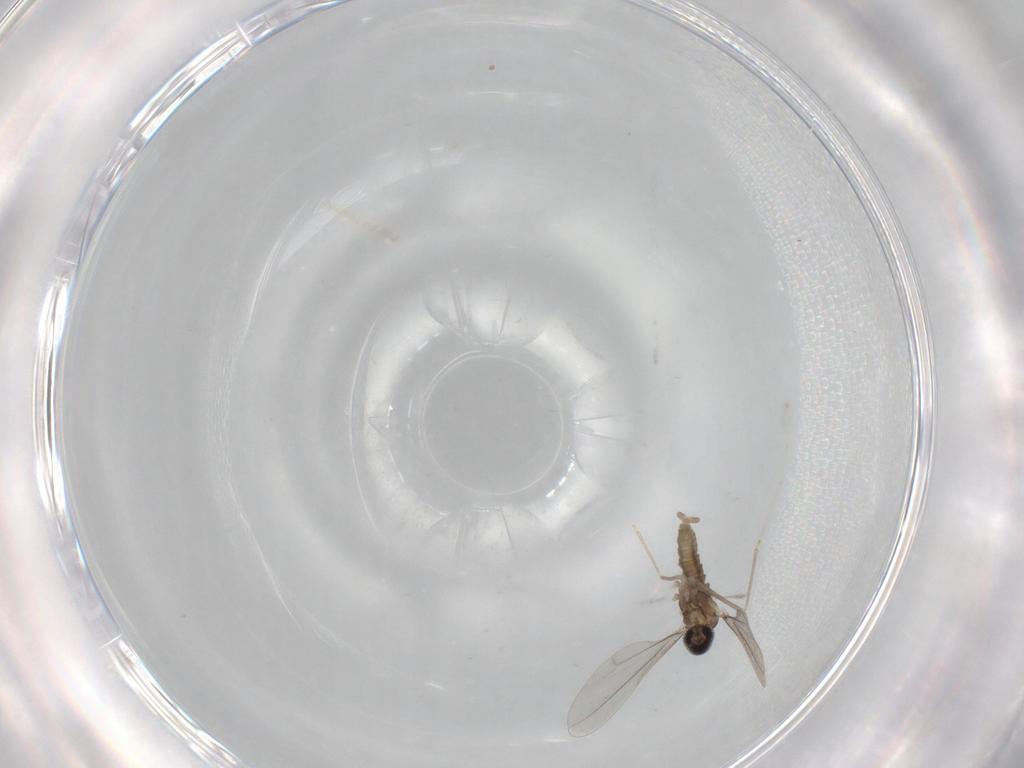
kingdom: Animalia
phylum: Arthropoda
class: Insecta
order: Diptera
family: Cecidomyiidae
